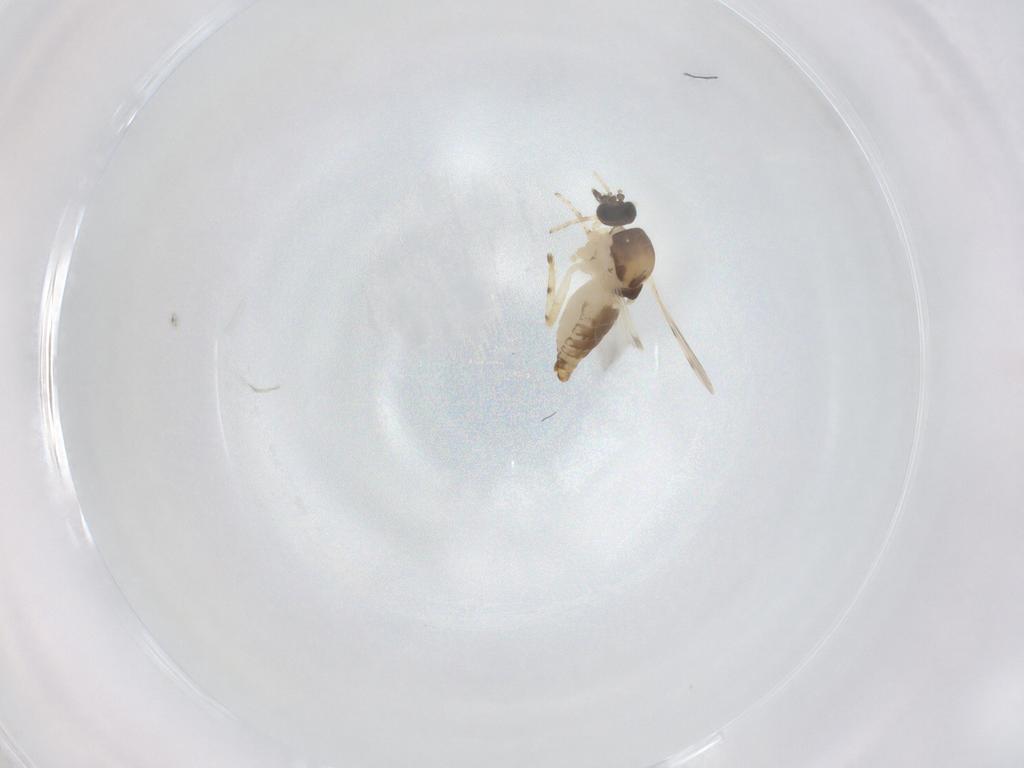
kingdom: Animalia
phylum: Arthropoda
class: Insecta
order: Diptera
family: Ceratopogonidae
